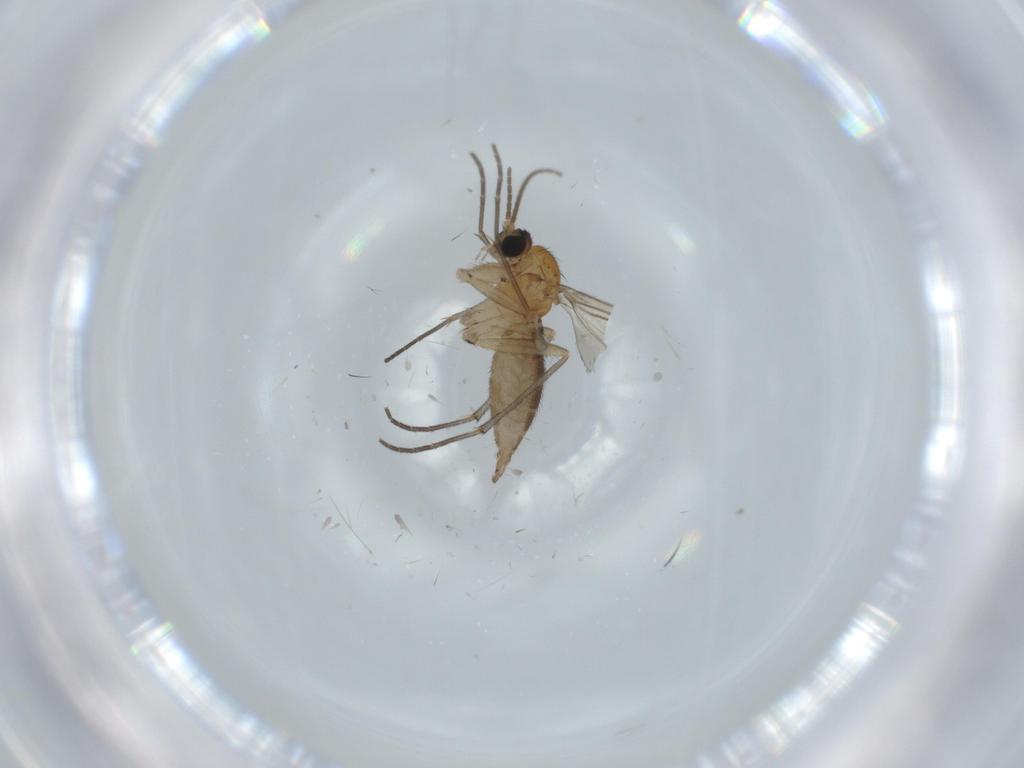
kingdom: Animalia
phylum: Arthropoda
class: Insecta
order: Diptera
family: Sciaridae
